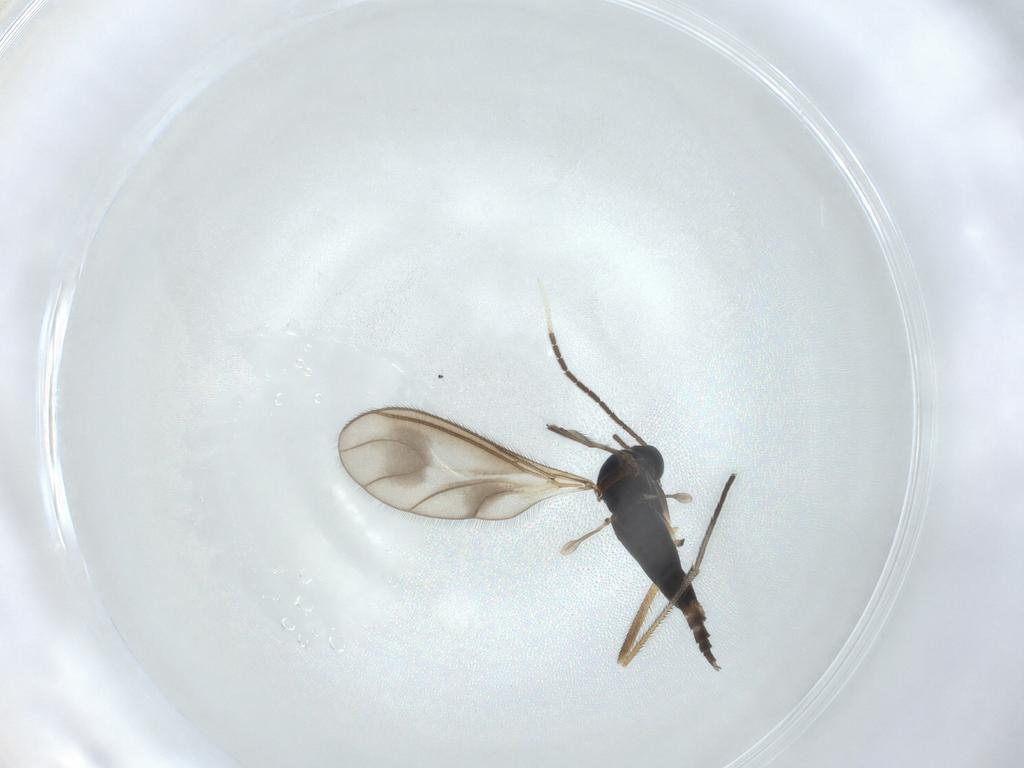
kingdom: Animalia
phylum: Arthropoda
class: Insecta
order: Diptera
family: Sciaridae
